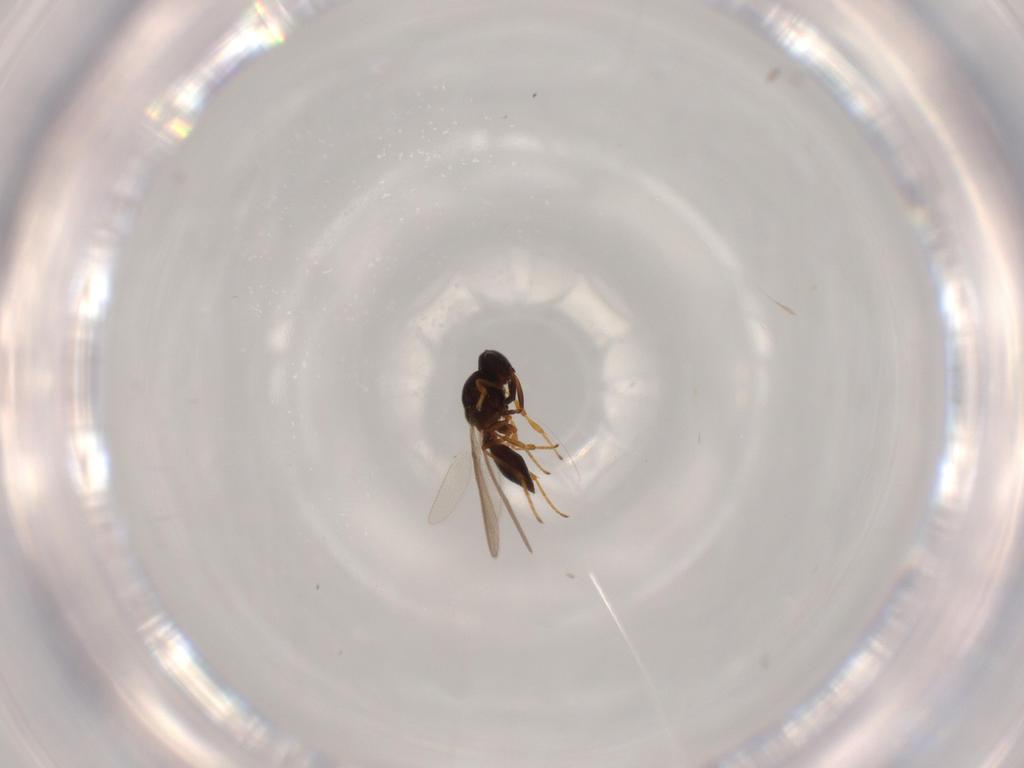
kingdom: Animalia
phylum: Arthropoda
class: Insecta
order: Hymenoptera
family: Platygastridae
